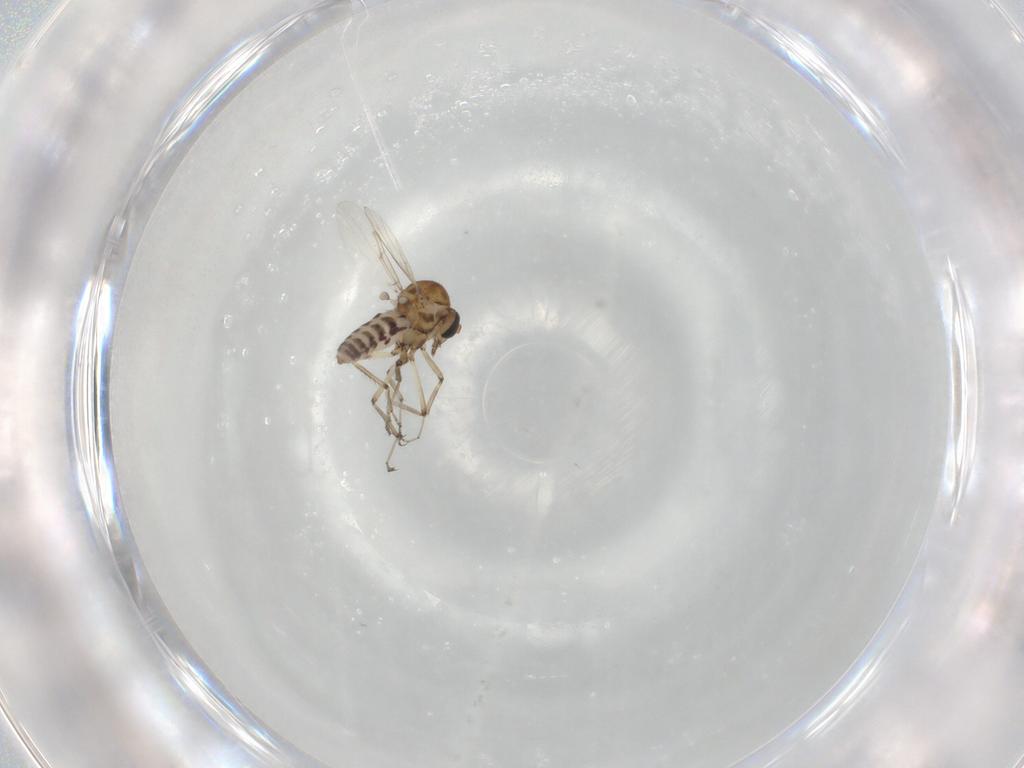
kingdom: Animalia
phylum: Arthropoda
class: Insecta
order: Diptera
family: Ceratopogonidae
